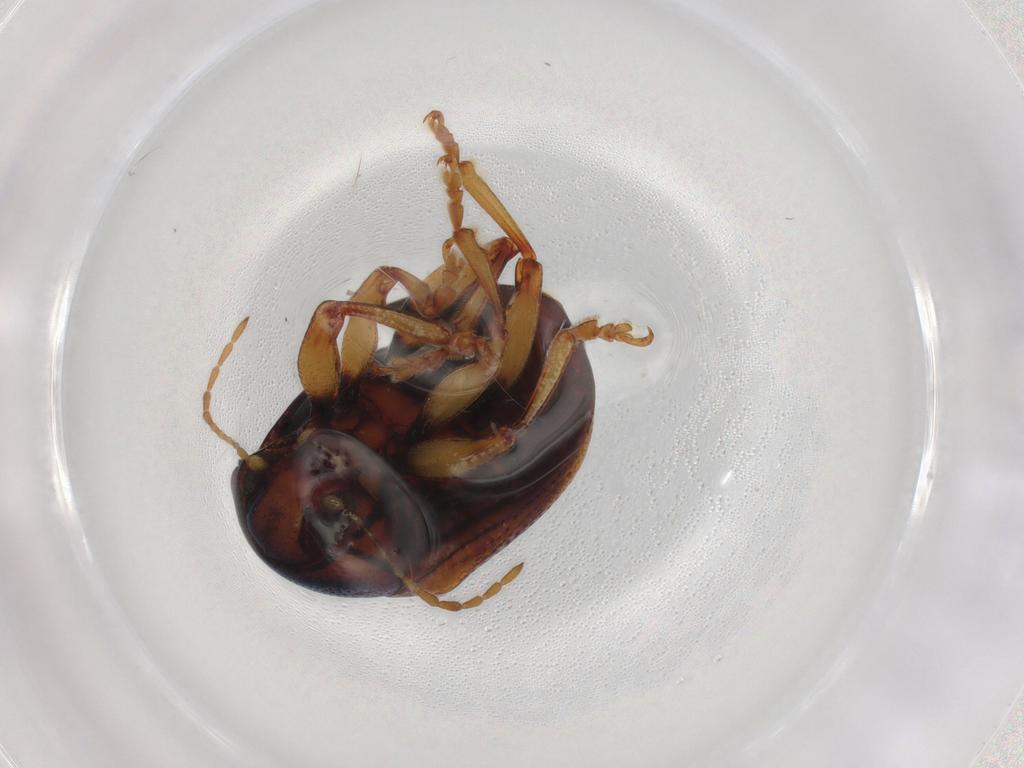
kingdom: Animalia
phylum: Arthropoda
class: Insecta
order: Coleoptera
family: Chrysomelidae
